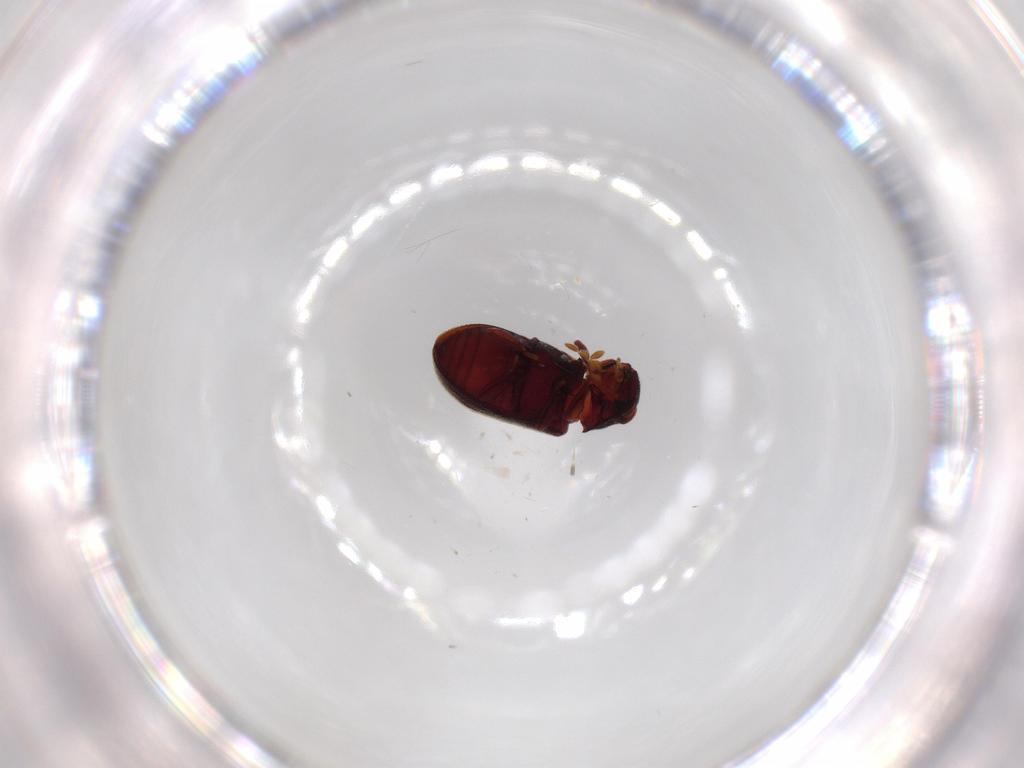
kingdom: Animalia
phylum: Arthropoda
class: Insecta
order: Coleoptera
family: Anobiidae
